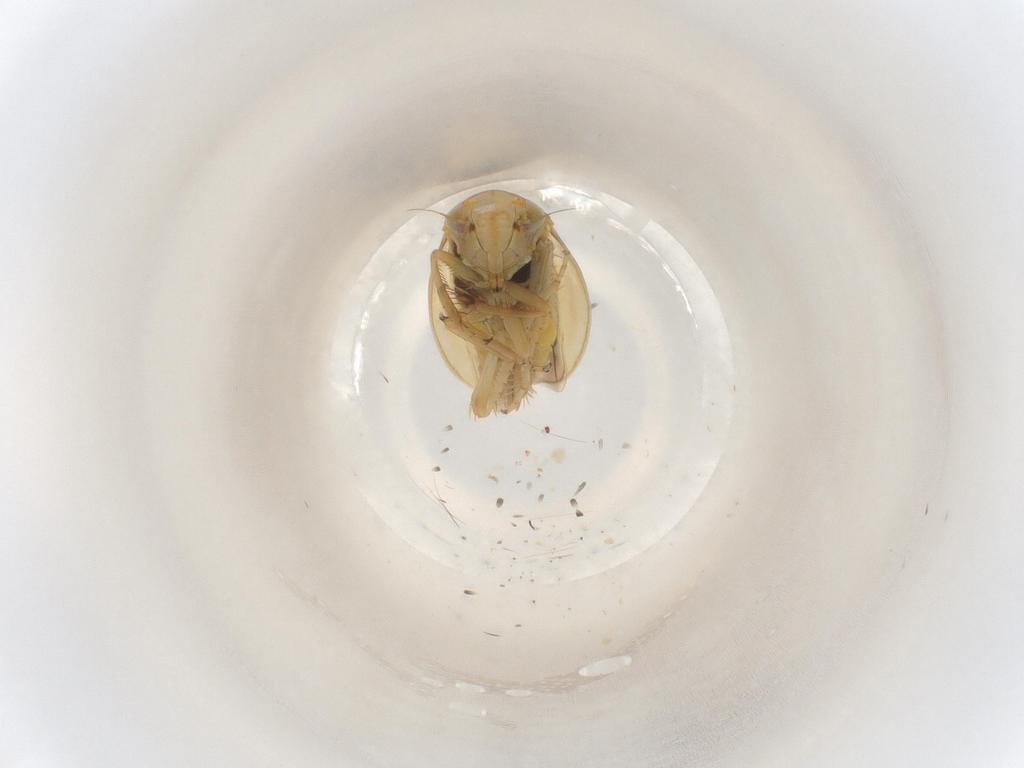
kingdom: Animalia
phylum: Arthropoda
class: Insecta
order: Hemiptera
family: Cicadellidae
